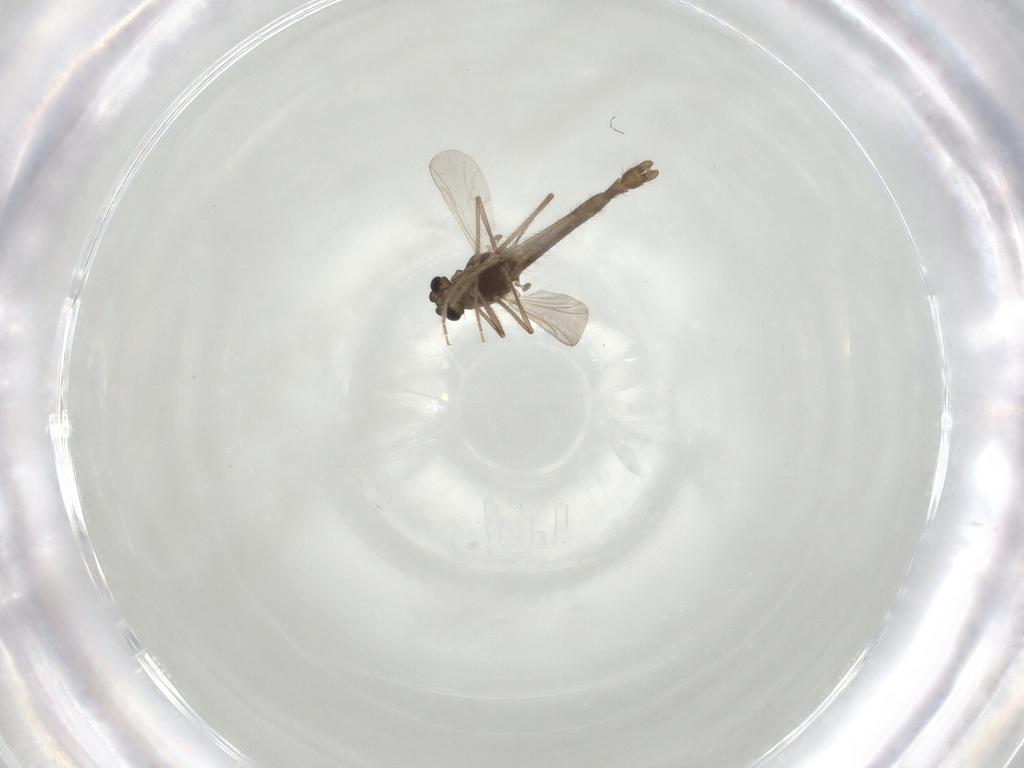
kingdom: Animalia
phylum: Arthropoda
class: Insecta
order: Diptera
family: Chironomidae
